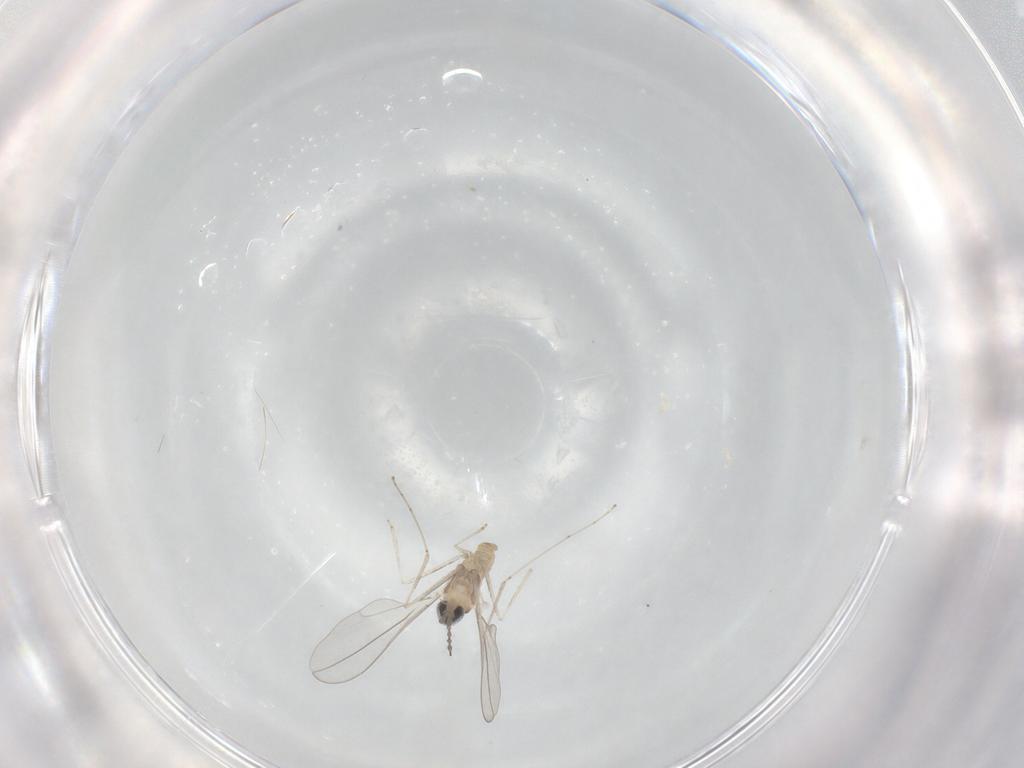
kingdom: Animalia
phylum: Arthropoda
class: Insecta
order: Diptera
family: Cecidomyiidae
